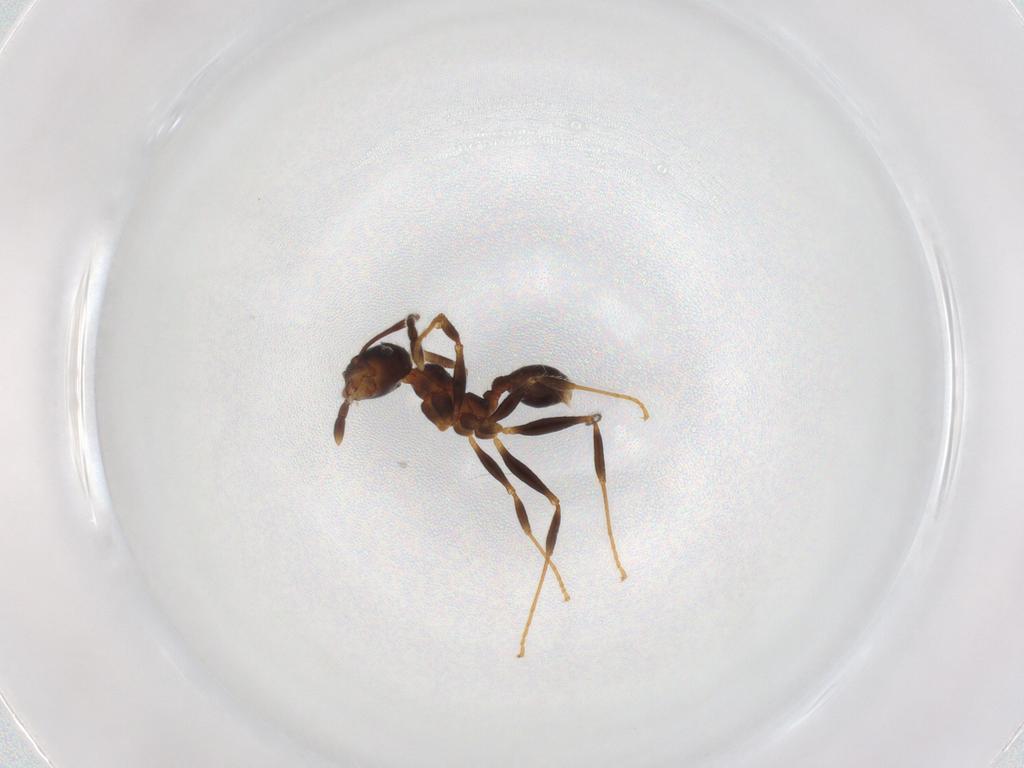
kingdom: Animalia
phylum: Arthropoda
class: Insecta
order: Hymenoptera
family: Formicidae
